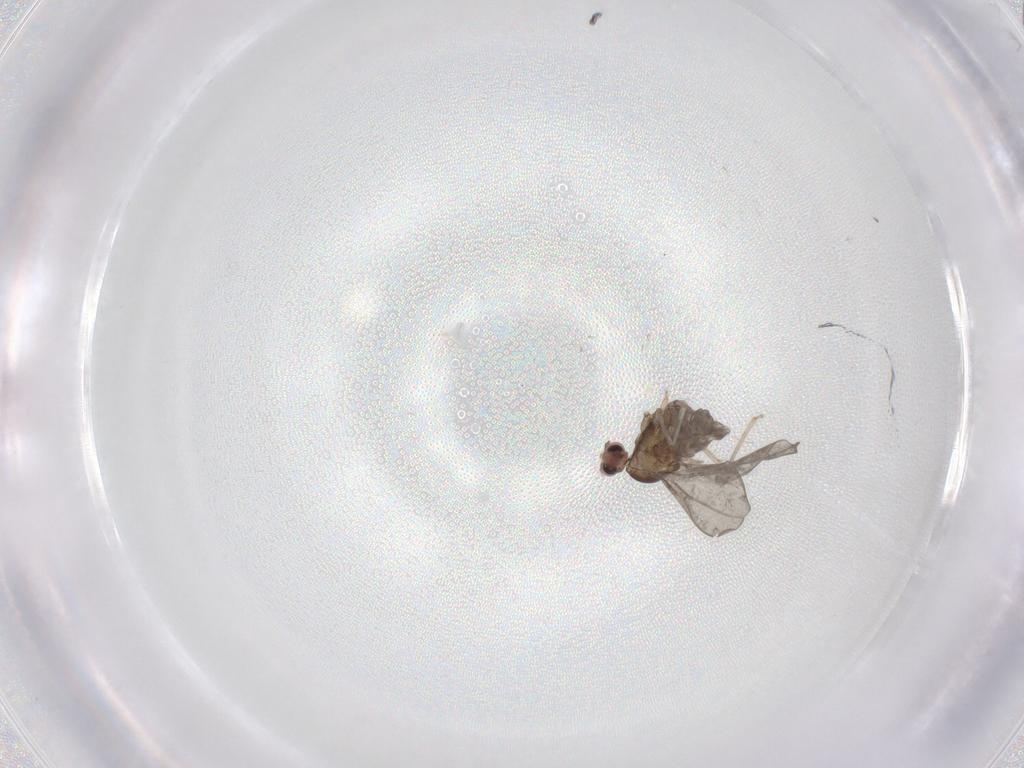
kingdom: Animalia
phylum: Arthropoda
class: Insecta
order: Diptera
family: Cecidomyiidae
